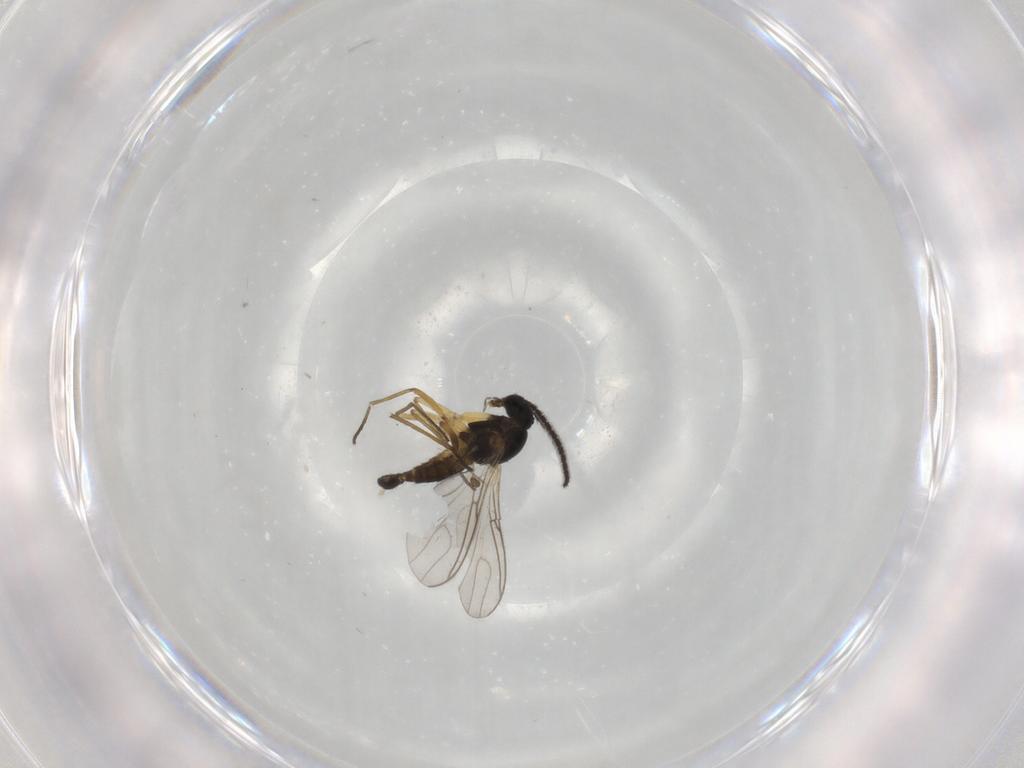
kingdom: Animalia
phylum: Arthropoda
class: Insecta
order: Diptera
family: Sciaridae
